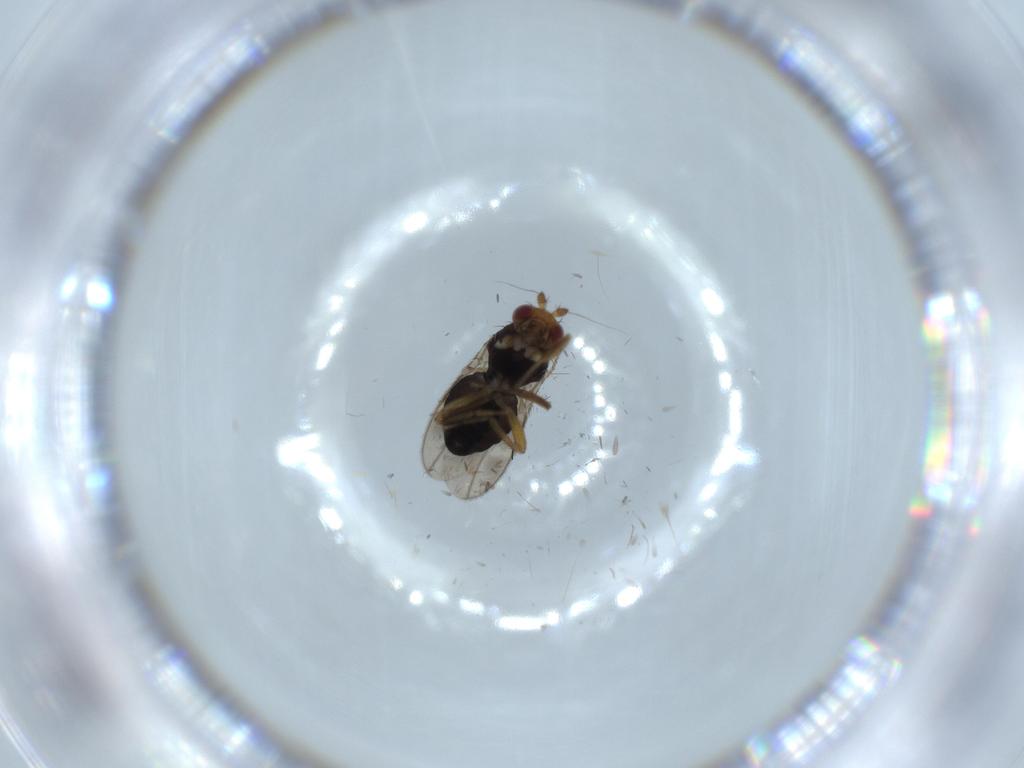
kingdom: Animalia
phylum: Arthropoda
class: Insecta
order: Diptera
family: Sphaeroceridae
